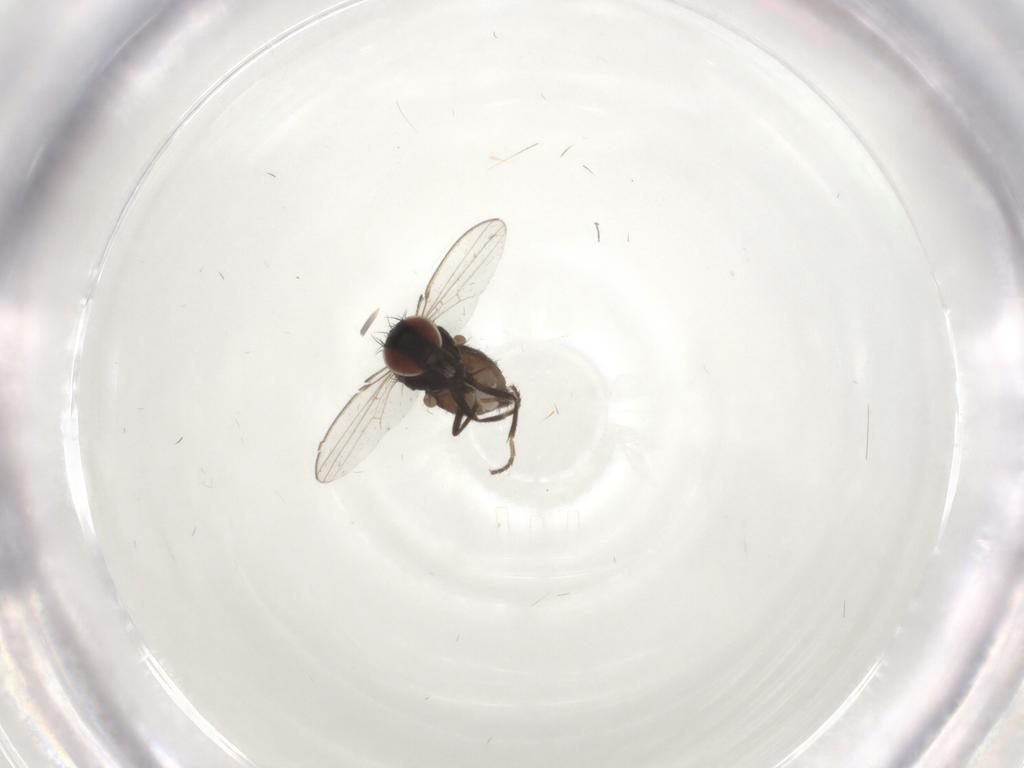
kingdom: Animalia
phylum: Arthropoda
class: Insecta
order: Diptera
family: Milichiidae
